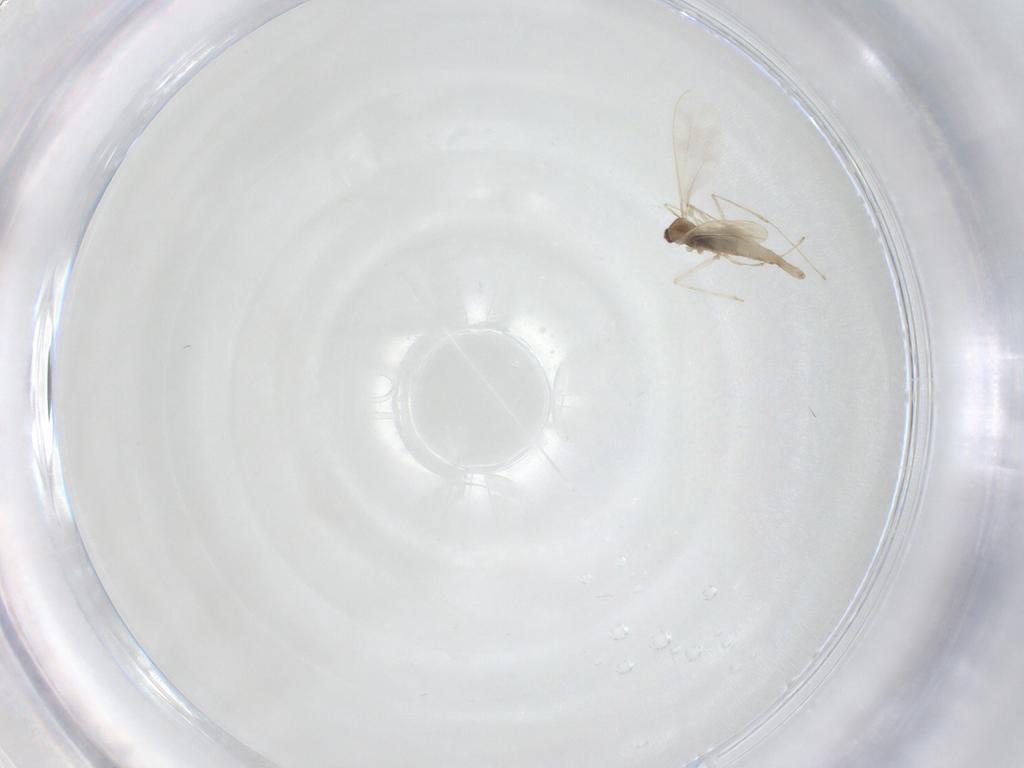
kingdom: Animalia
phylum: Arthropoda
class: Insecta
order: Diptera
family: Cecidomyiidae
